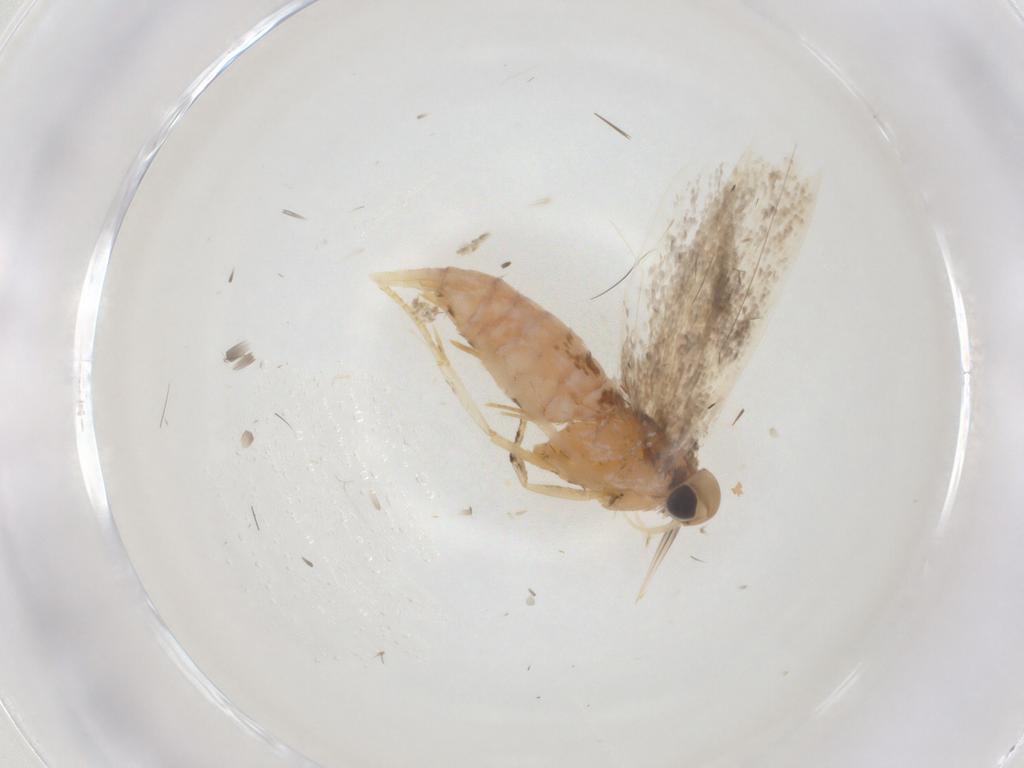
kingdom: Animalia
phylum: Arthropoda
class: Insecta
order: Lepidoptera
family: Gelechiidae
